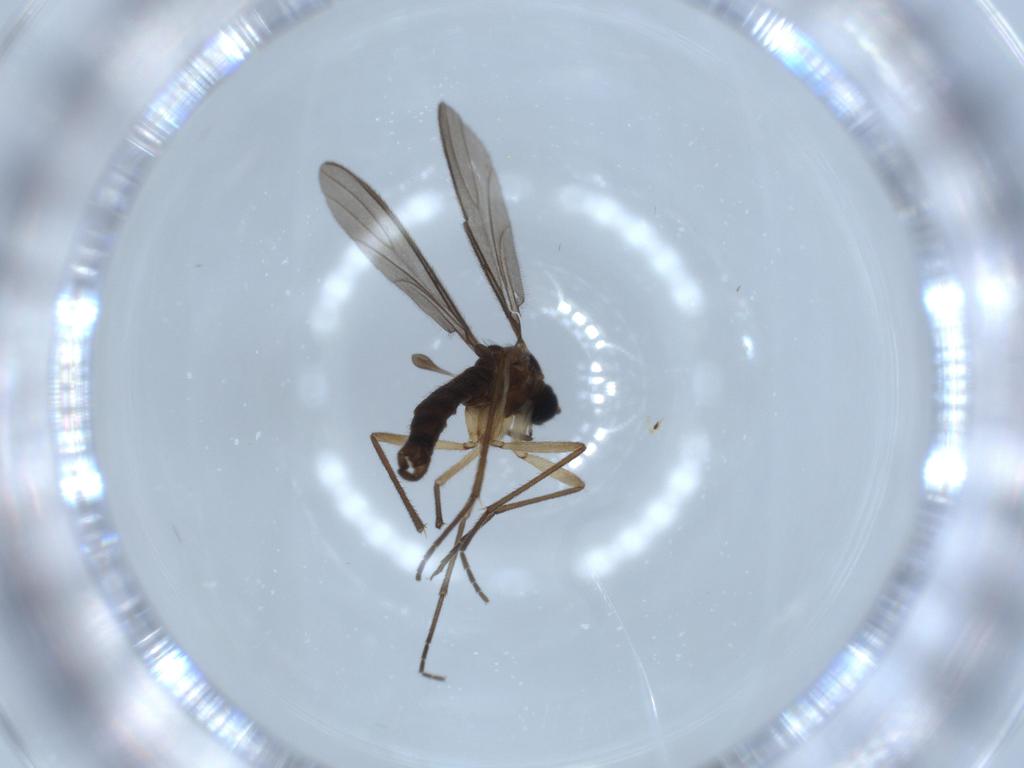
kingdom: Animalia
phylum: Arthropoda
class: Insecta
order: Diptera
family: Sciaridae
